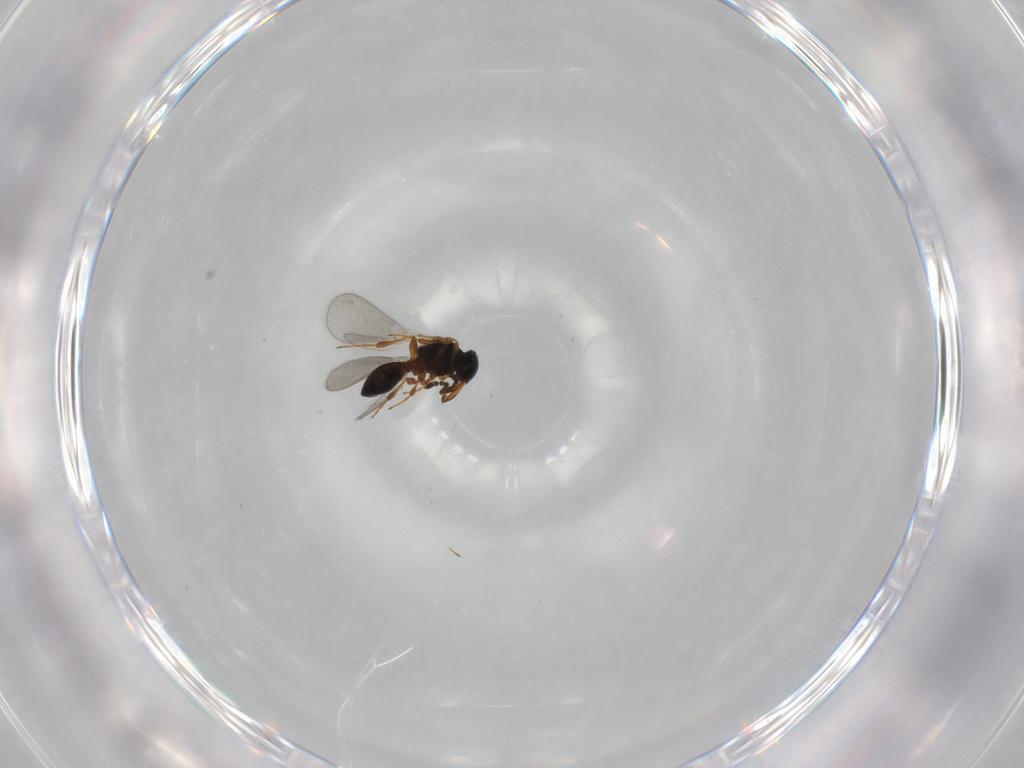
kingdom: Animalia
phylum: Arthropoda
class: Insecta
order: Hymenoptera
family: Platygastridae
